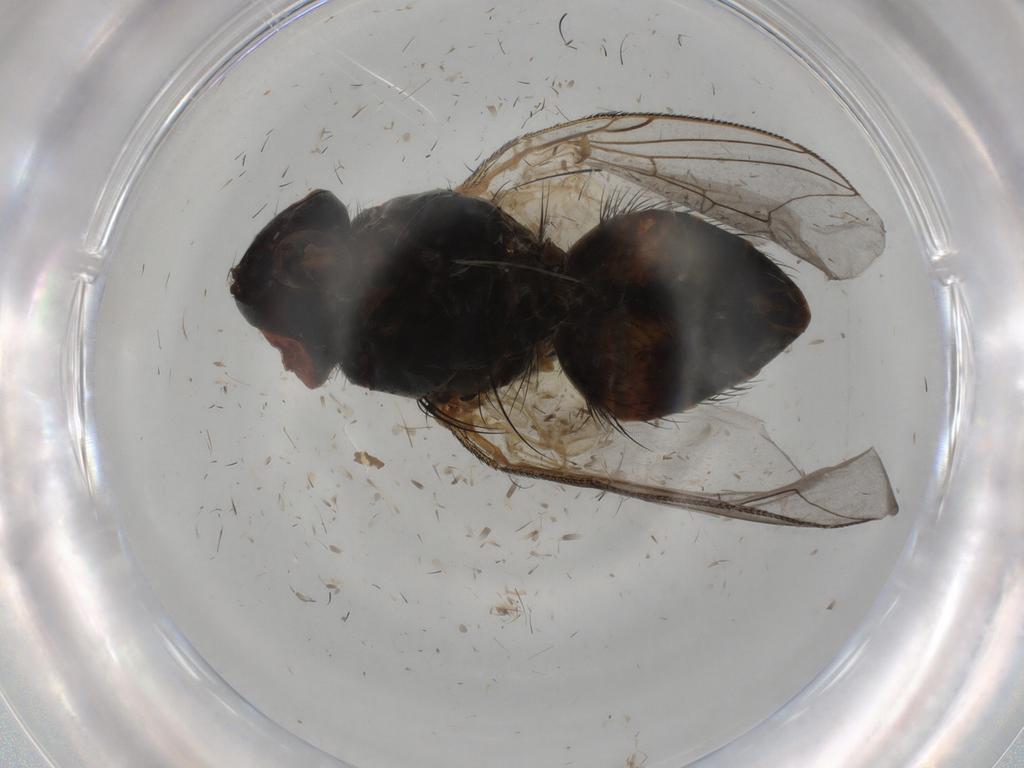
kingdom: Animalia
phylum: Arthropoda
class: Insecta
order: Diptera
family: Sarcophagidae
